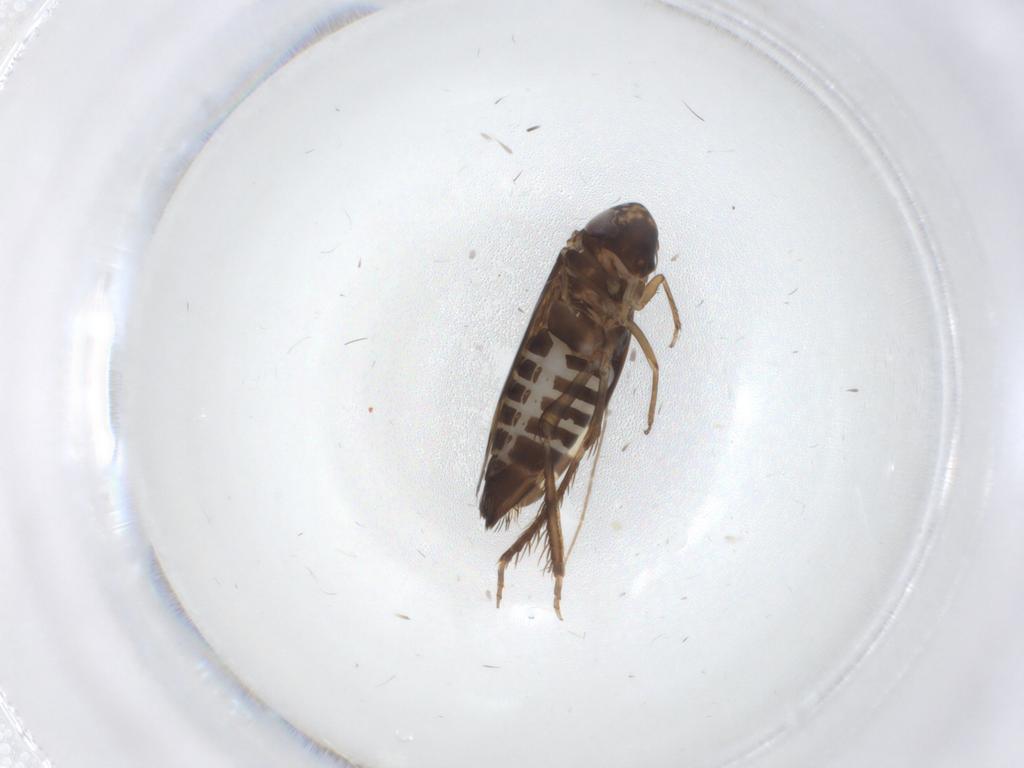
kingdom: Animalia
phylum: Arthropoda
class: Insecta
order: Hemiptera
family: Cicadellidae
